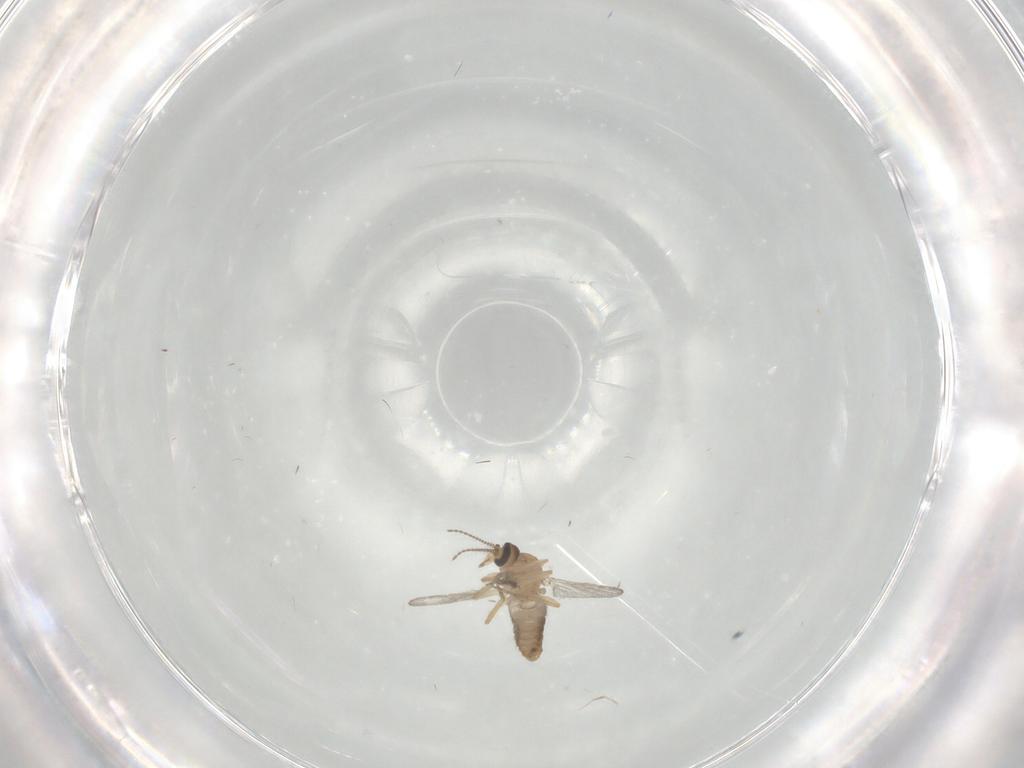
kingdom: Animalia
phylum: Arthropoda
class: Insecta
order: Diptera
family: Ceratopogonidae
